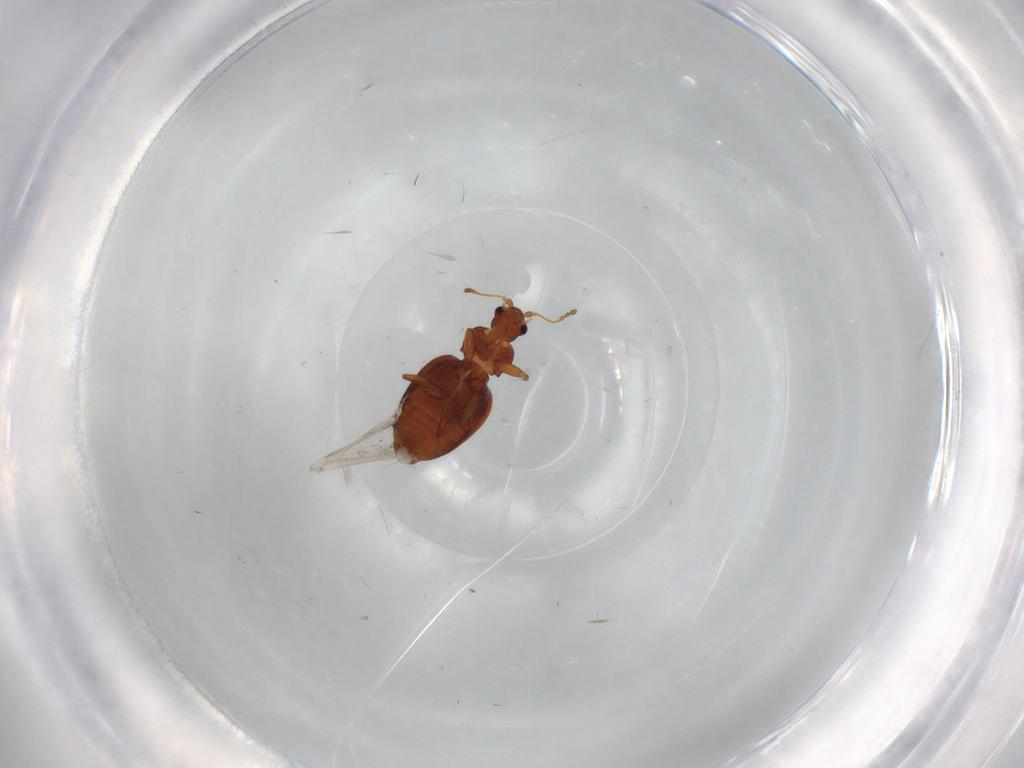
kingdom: Animalia
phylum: Arthropoda
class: Insecta
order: Coleoptera
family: Latridiidae
